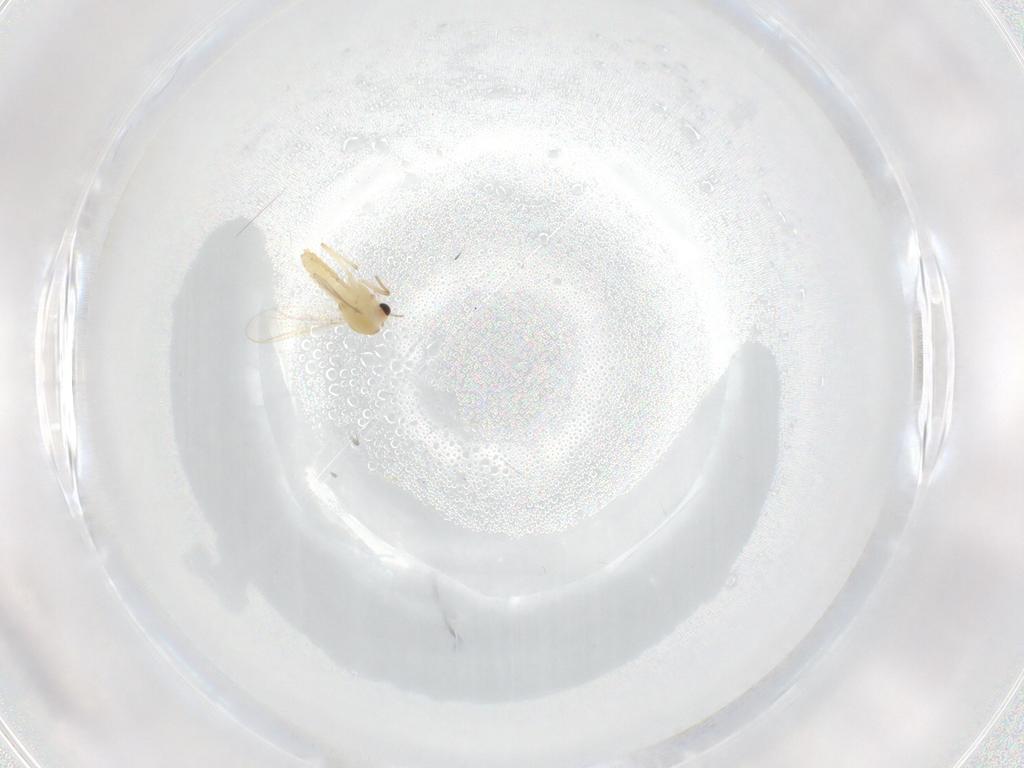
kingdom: Animalia
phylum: Arthropoda
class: Insecta
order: Diptera
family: Chironomidae
